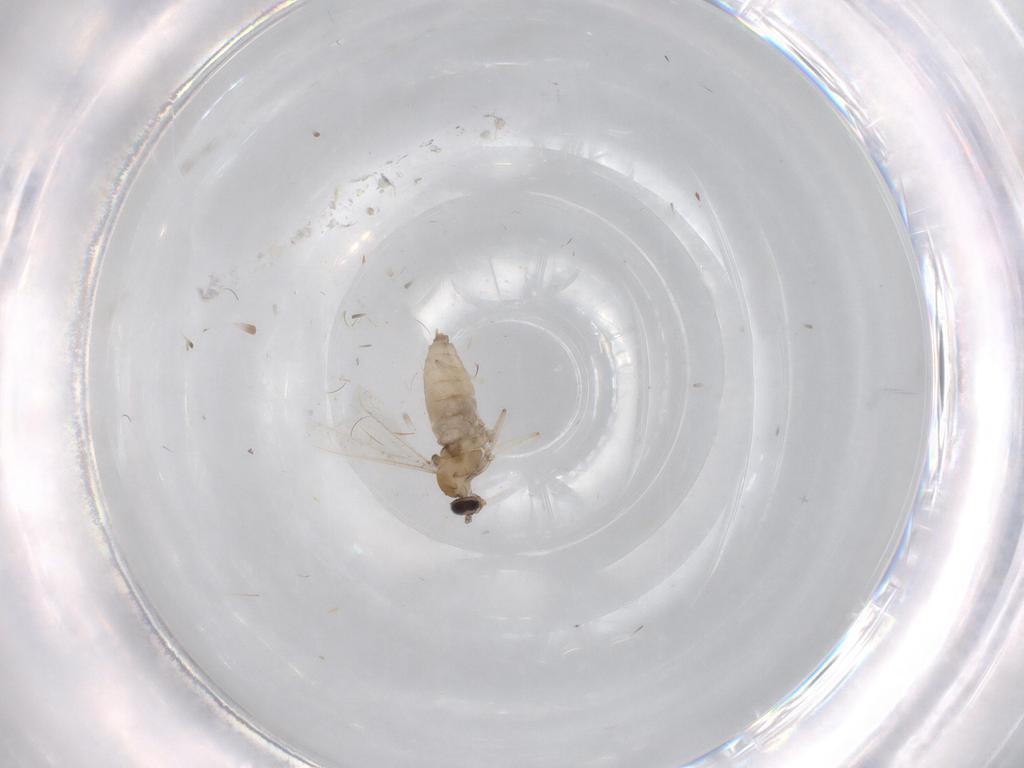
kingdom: Animalia
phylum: Arthropoda
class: Insecta
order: Diptera
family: Cecidomyiidae
